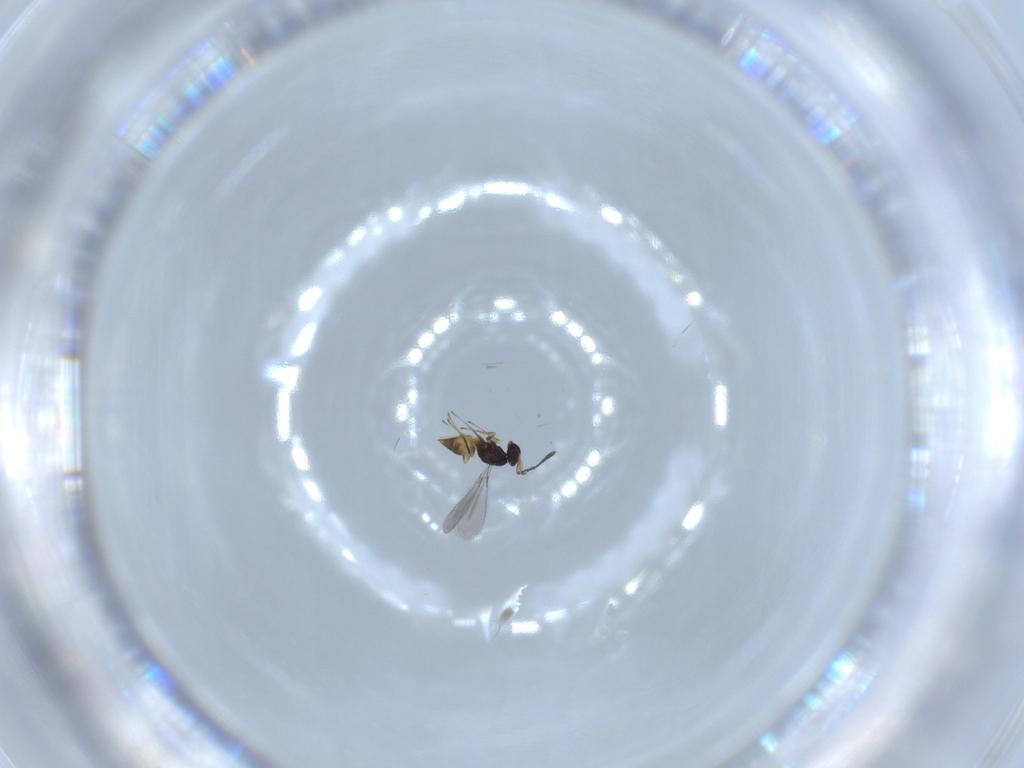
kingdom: Animalia
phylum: Arthropoda
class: Insecta
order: Hymenoptera
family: Mymaridae
